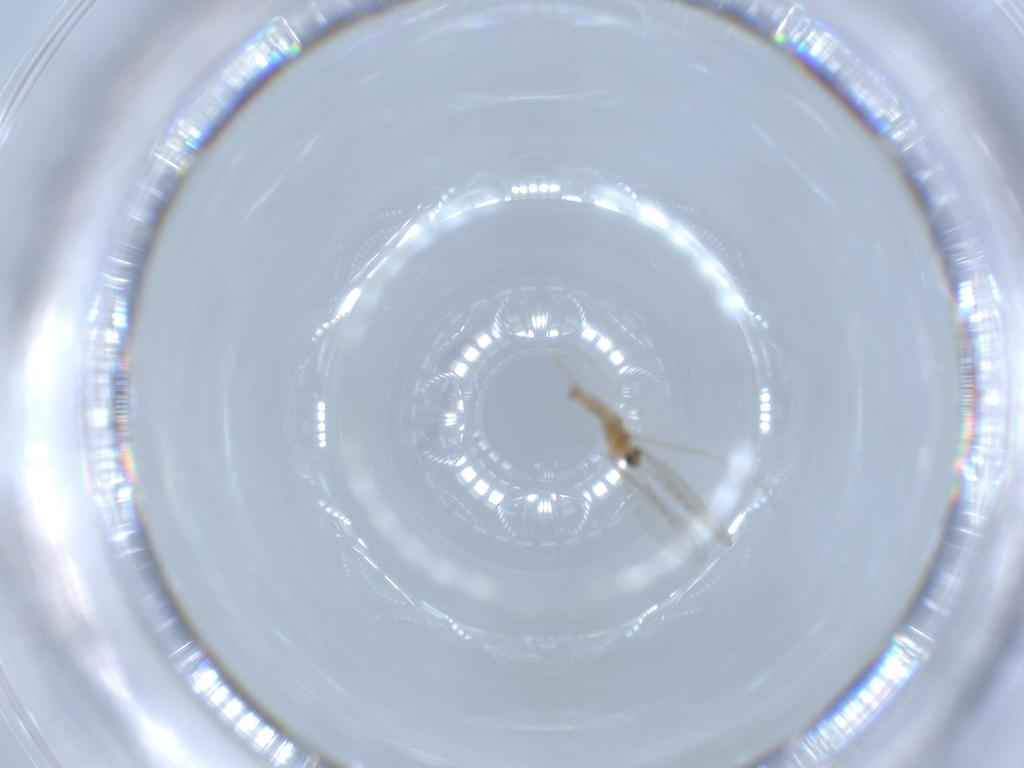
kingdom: Animalia
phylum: Arthropoda
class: Insecta
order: Diptera
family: Cecidomyiidae
